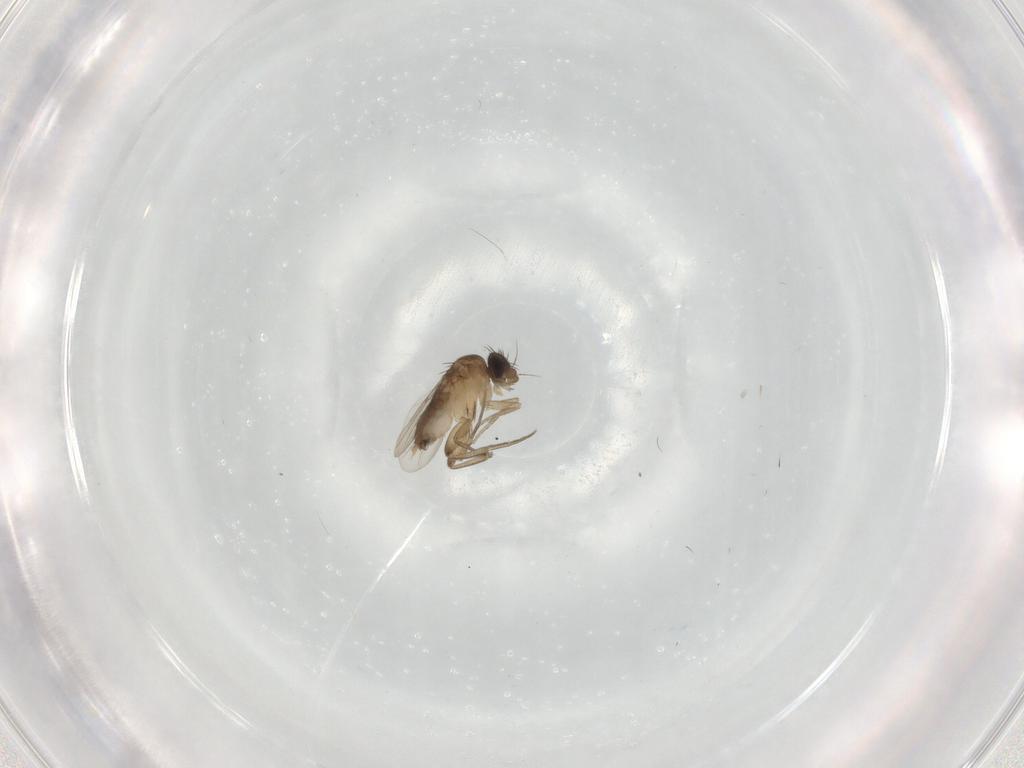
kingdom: Animalia
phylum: Arthropoda
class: Insecta
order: Diptera
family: Phoridae
